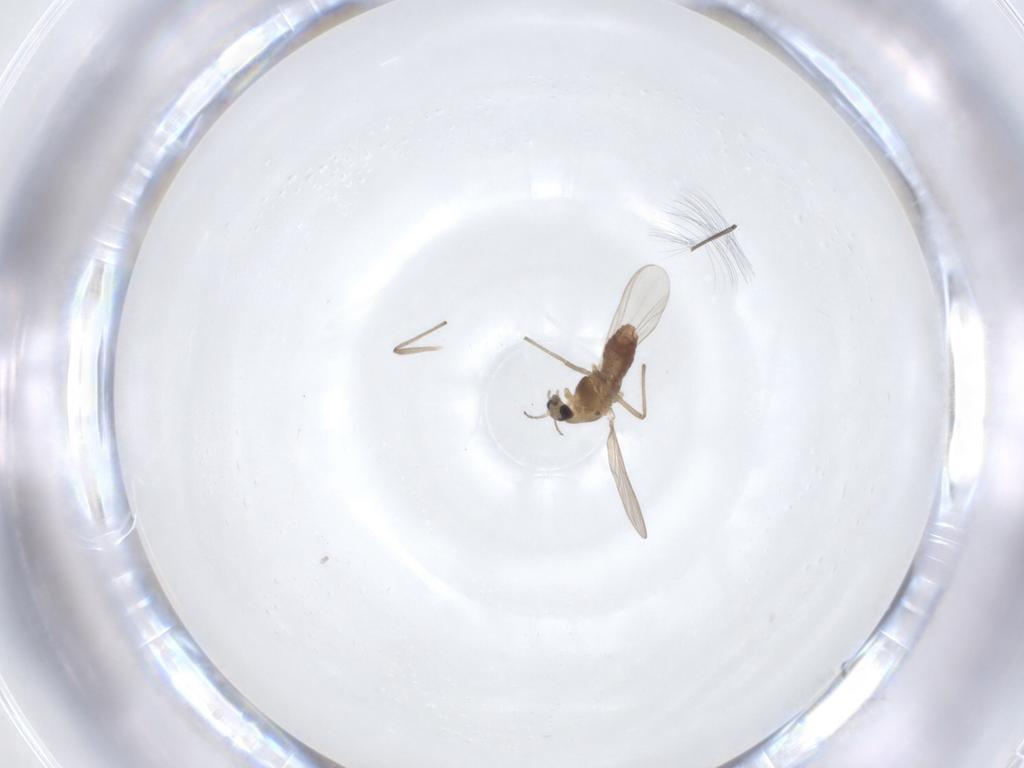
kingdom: Animalia
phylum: Arthropoda
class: Insecta
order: Diptera
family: Chironomidae
